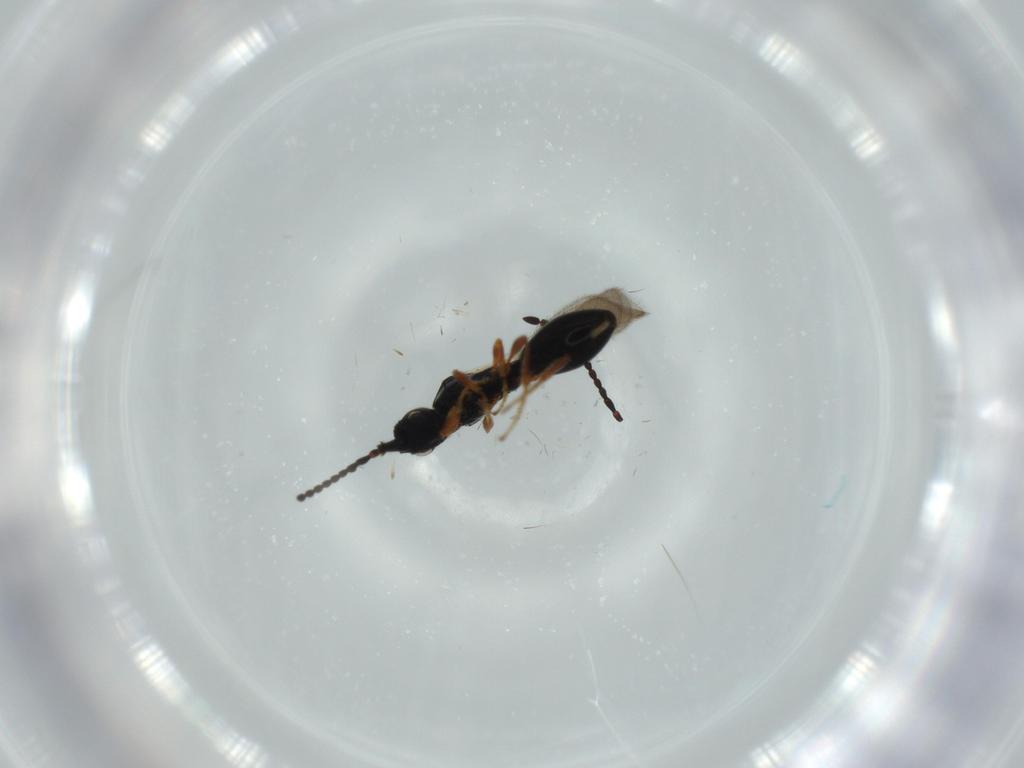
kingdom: Animalia
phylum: Arthropoda
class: Insecta
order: Hymenoptera
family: Diapriidae
